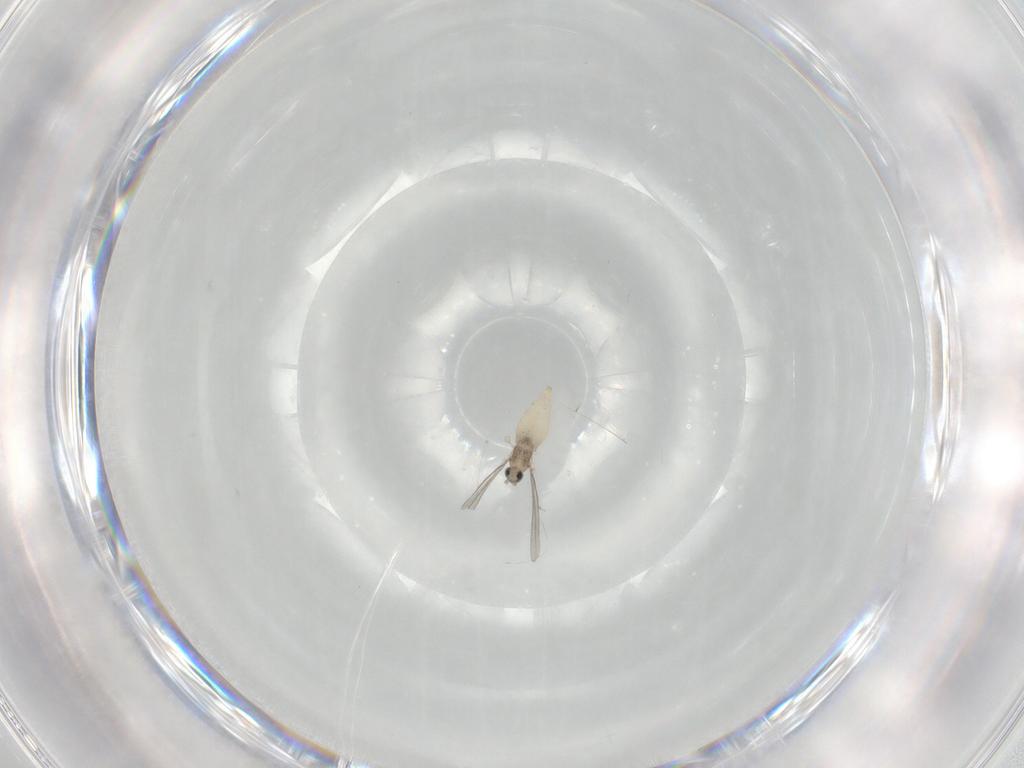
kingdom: Animalia
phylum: Arthropoda
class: Insecta
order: Diptera
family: Cecidomyiidae
